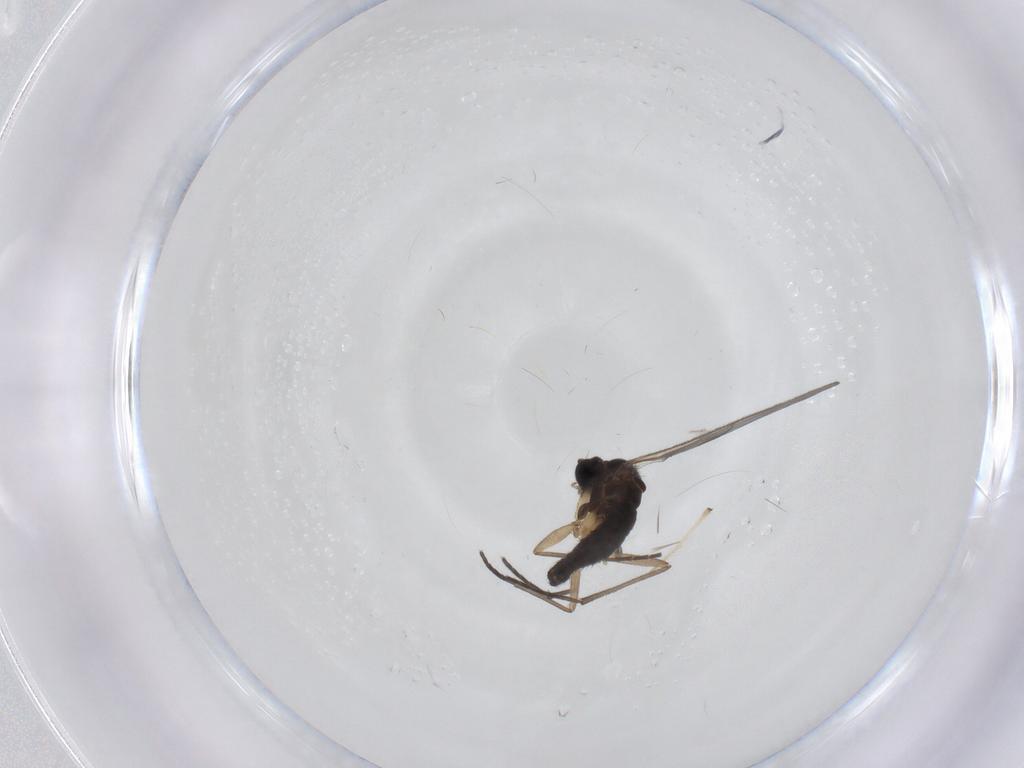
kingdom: Animalia
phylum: Arthropoda
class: Insecta
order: Diptera
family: Sciaridae
